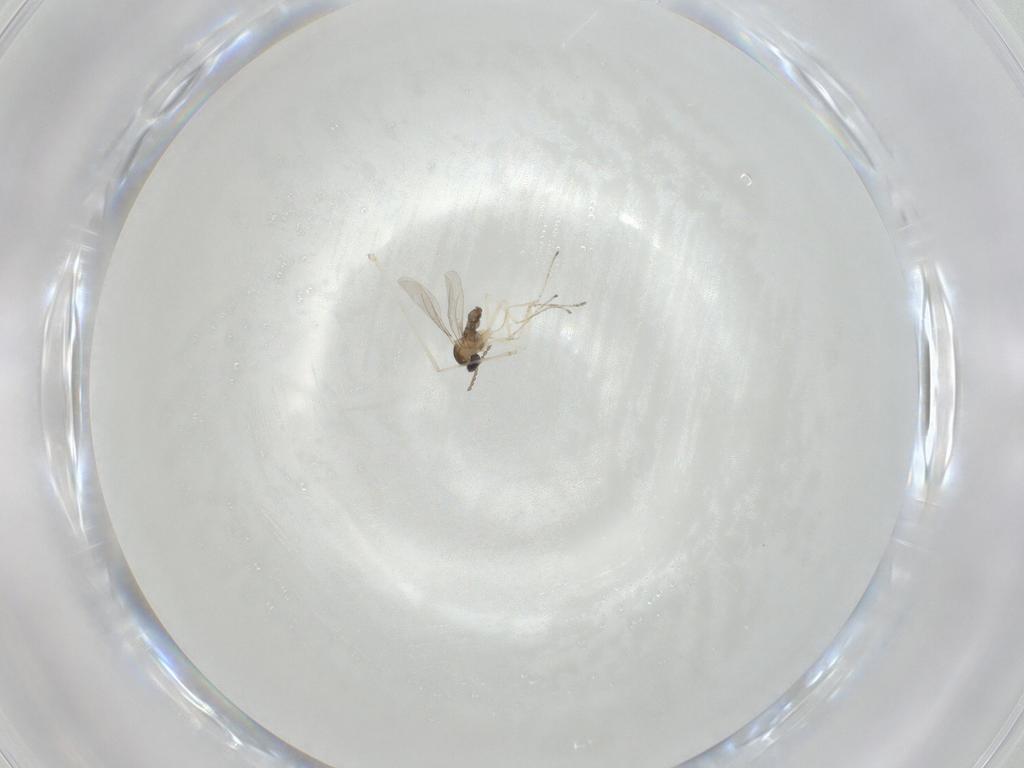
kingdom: Animalia
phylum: Arthropoda
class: Insecta
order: Diptera
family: Cecidomyiidae
